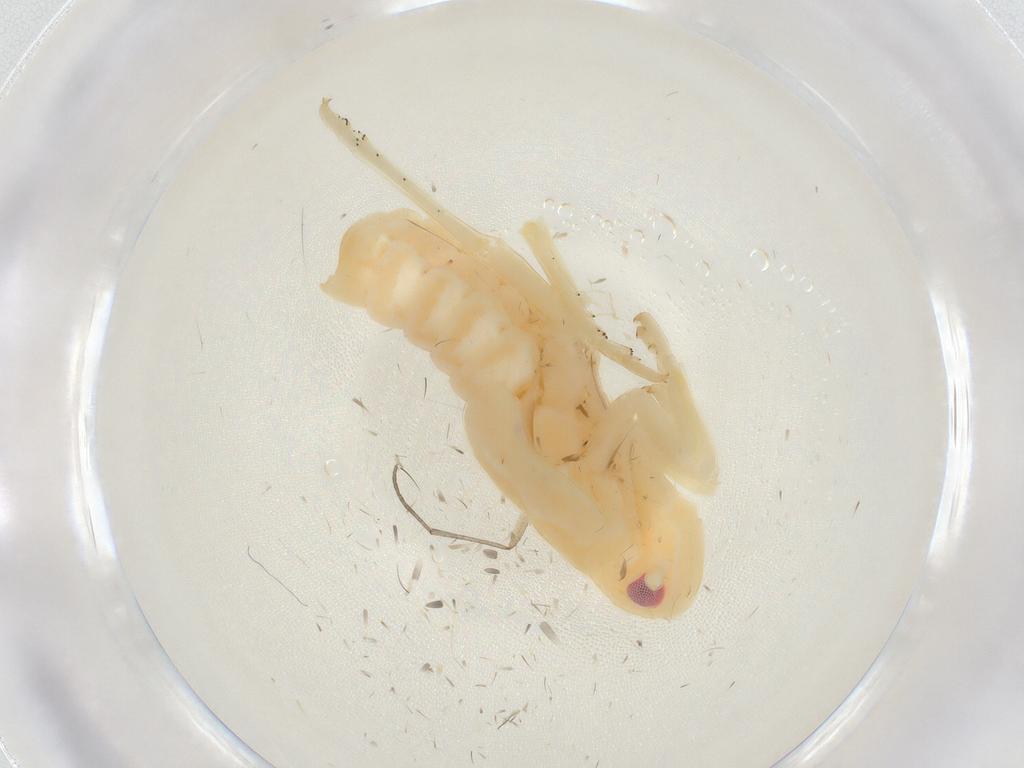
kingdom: Animalia
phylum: Arthropoda
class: Insecta
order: Hemiptera
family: Flatidae
